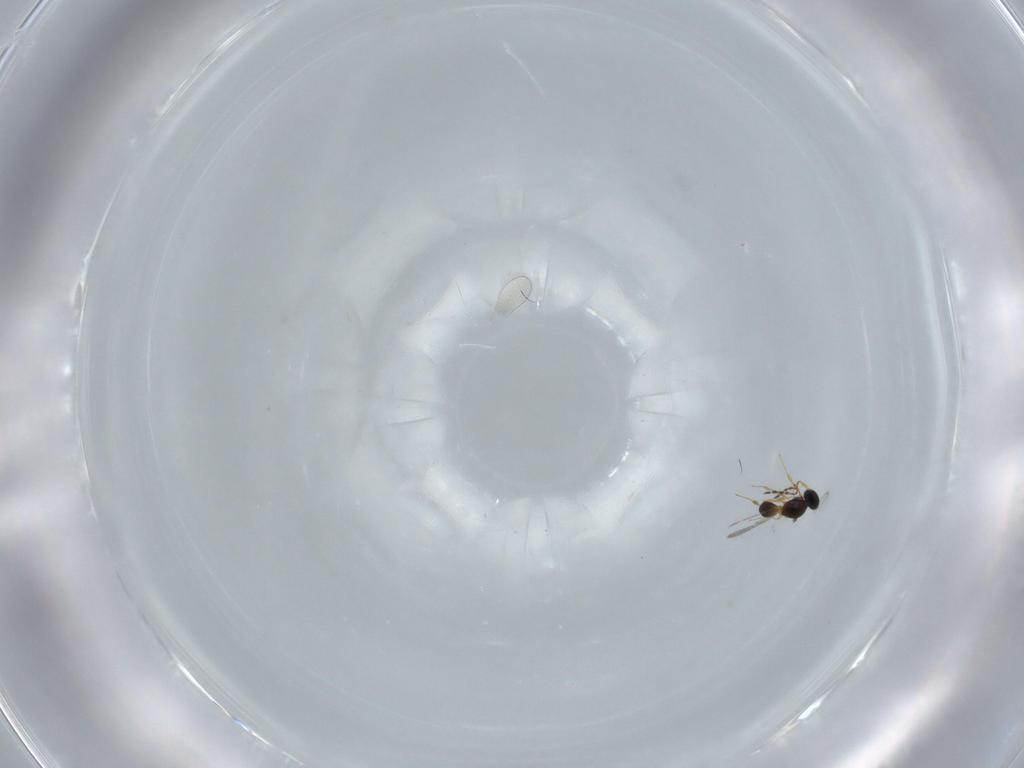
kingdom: Animalia
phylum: Arthropoda
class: Insecta
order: Hymenoptera
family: Platygastridae
